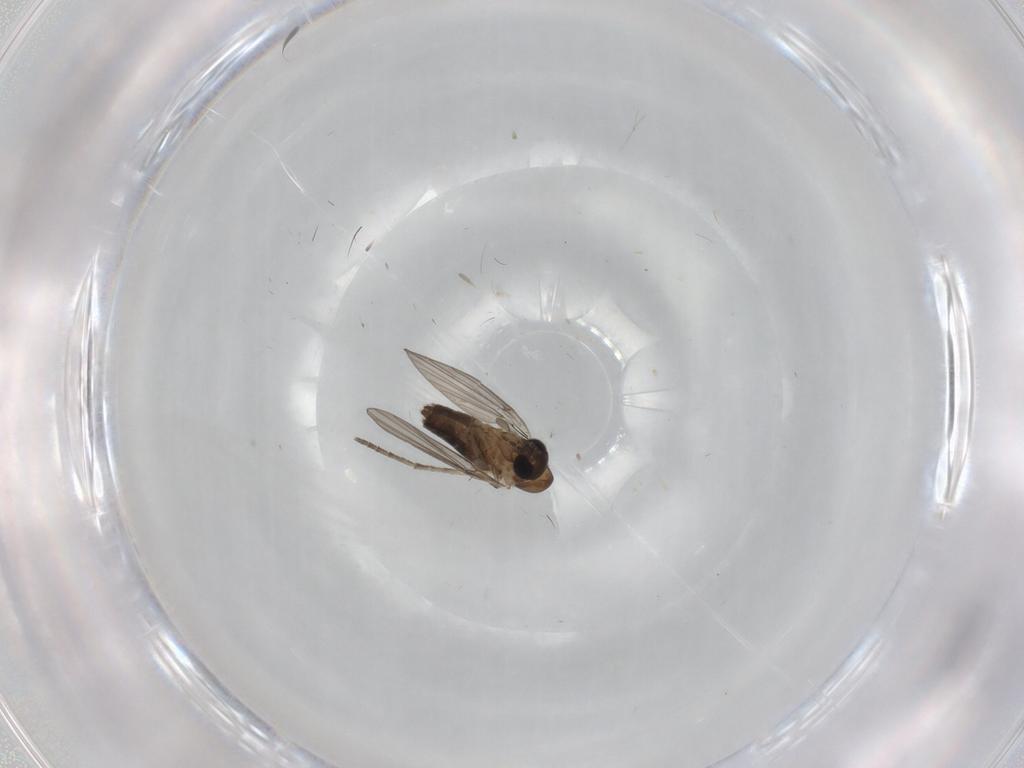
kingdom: Animalia
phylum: Arthropoda
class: Insecta
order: Diptera
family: Psychodidae
